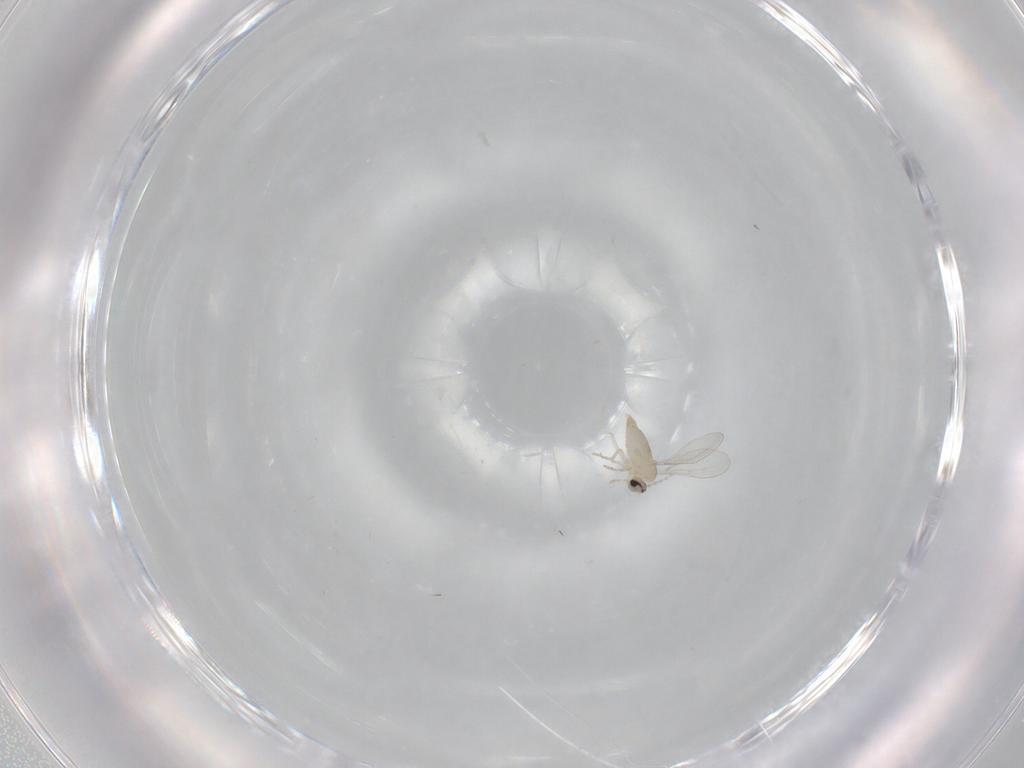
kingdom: Animalia
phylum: Arthropoda
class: Insecta
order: Diptera
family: Cecidomyiidae
